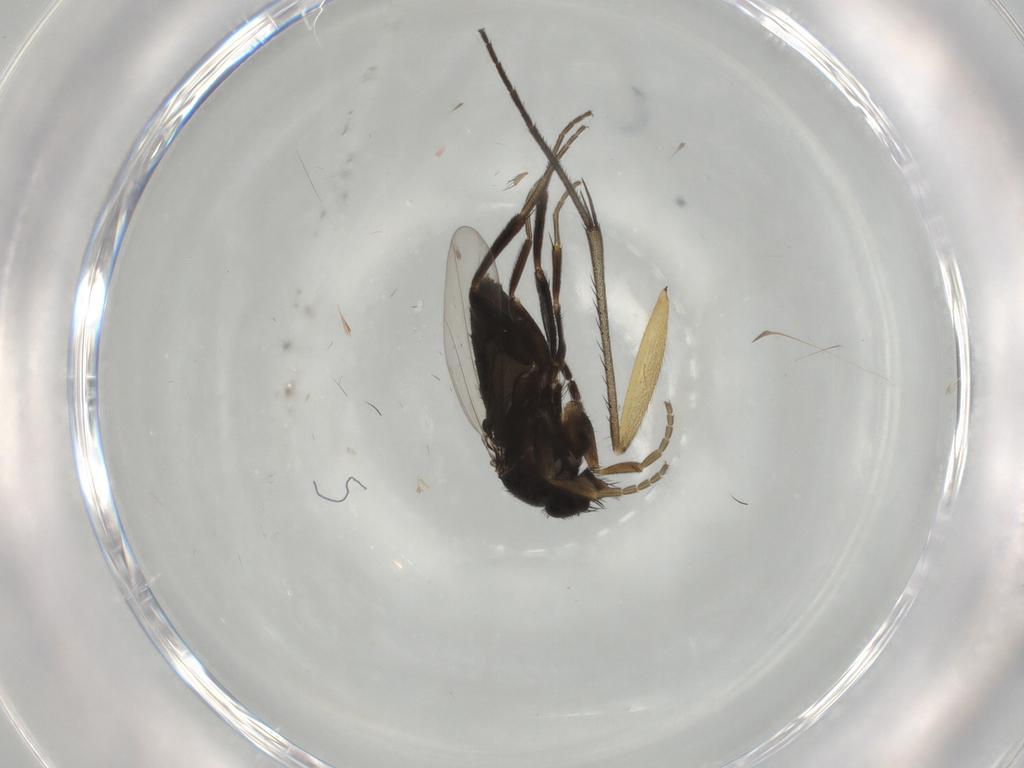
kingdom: Animalia
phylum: Arthropoda
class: Insecta
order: Diptera
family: Phoridae
